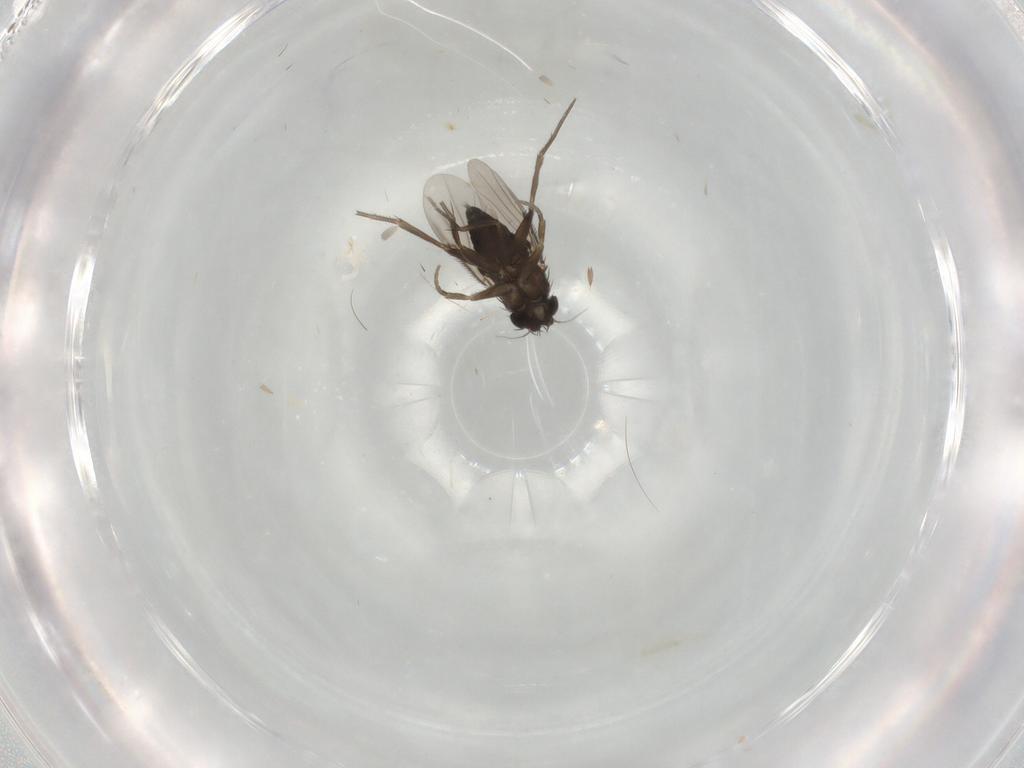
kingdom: Animalia
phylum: Arthropoda
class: Insecta
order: Diptera
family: Phoridae
